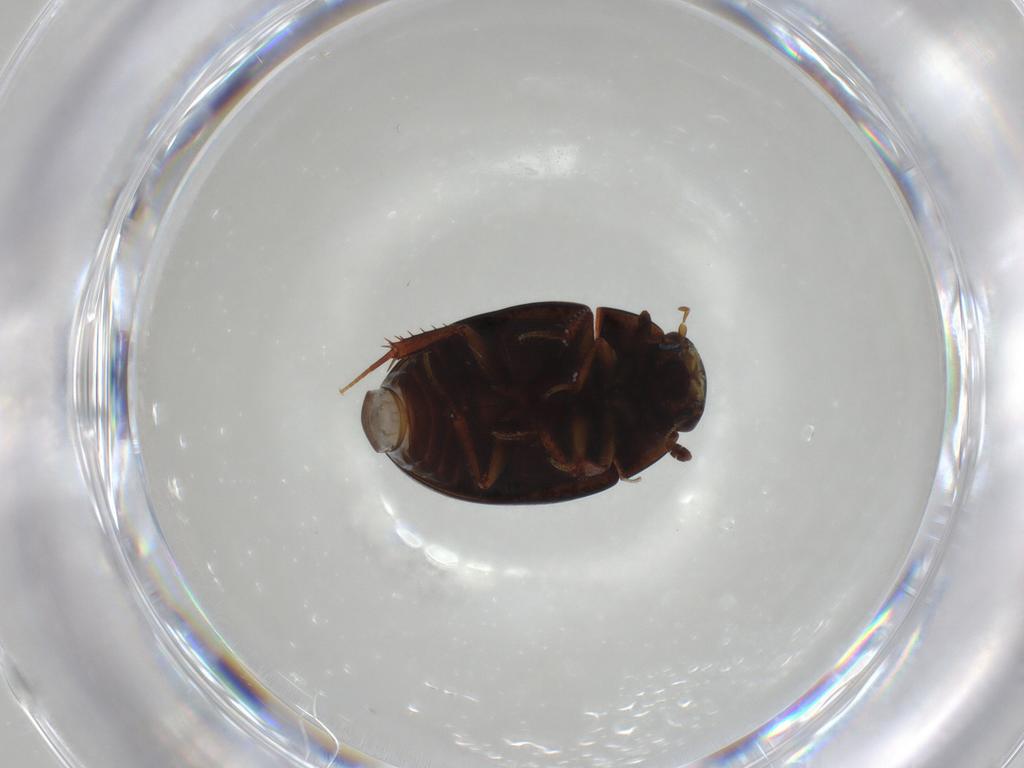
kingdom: Animalia
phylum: Arthropoda
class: Insecta
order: Coleoptera
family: Hydrophilidae
